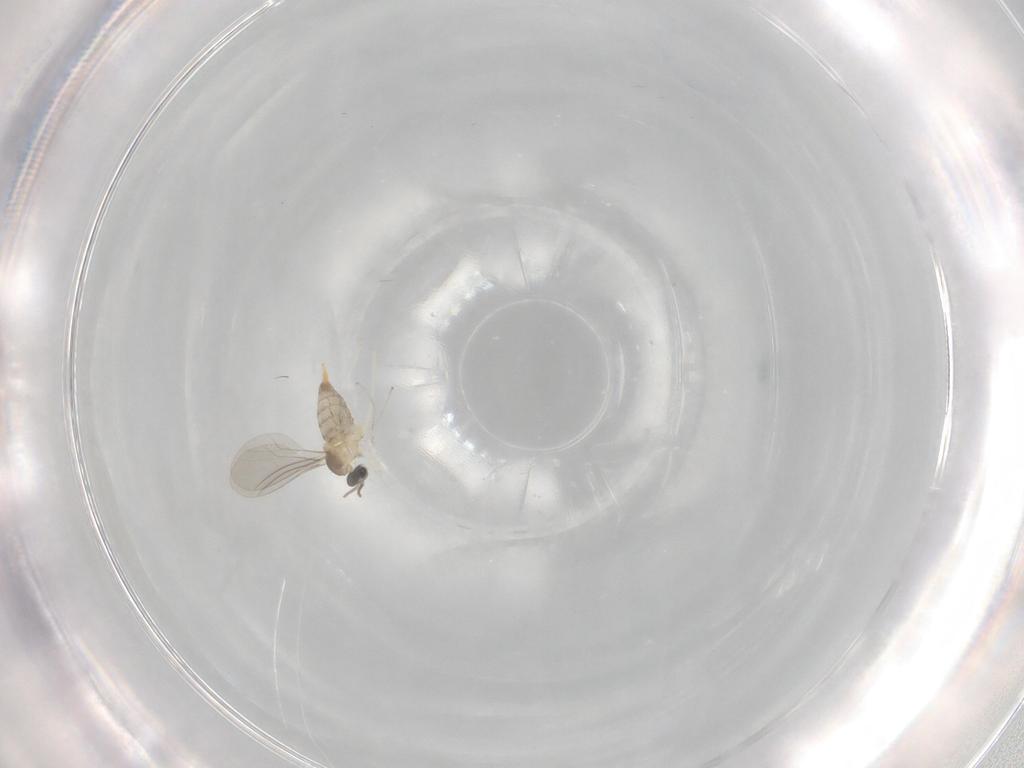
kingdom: Animalia
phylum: Arthropoda
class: Insecta
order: Diptera
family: Cecidomyiidae
